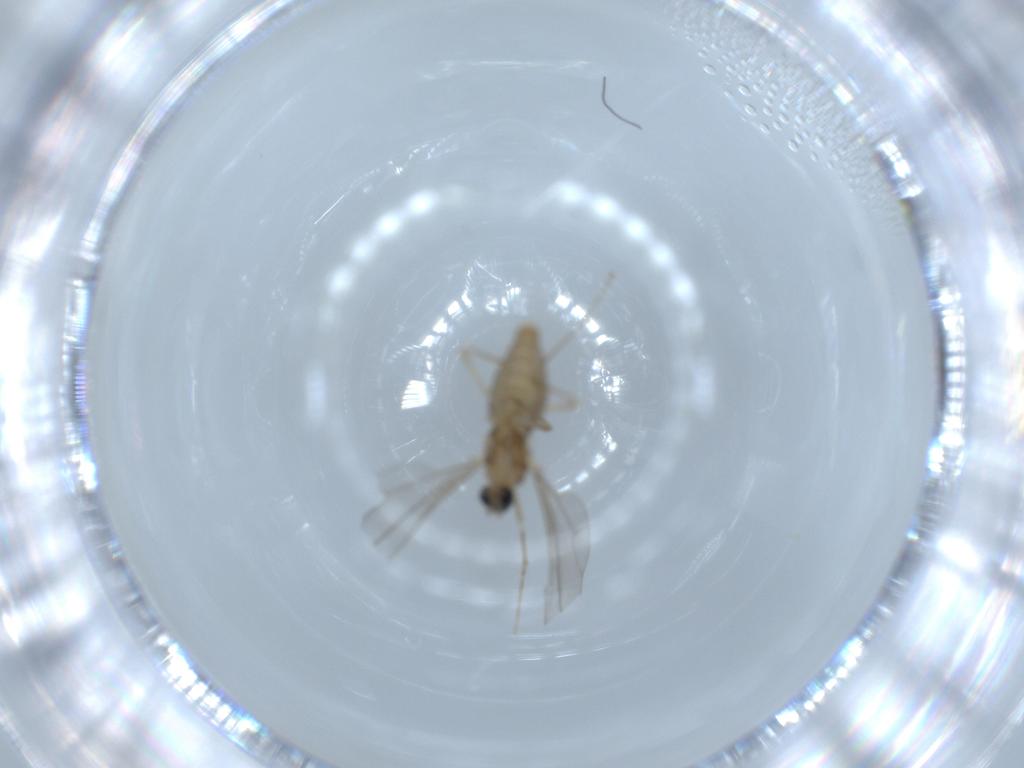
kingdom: Animalia
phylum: Arthropoda
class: Insecta
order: Diptera
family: Cecidomyiidae
